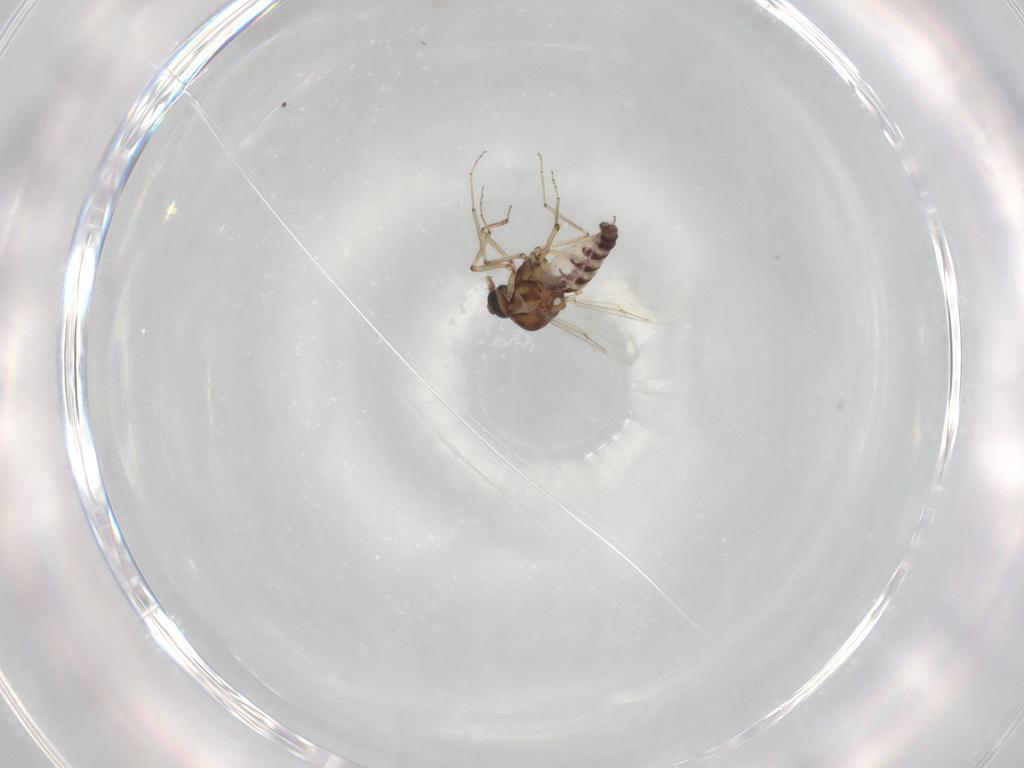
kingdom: Animalia
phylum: Arthropoda
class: Insecta
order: Diptera
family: Ceratopogonidae
